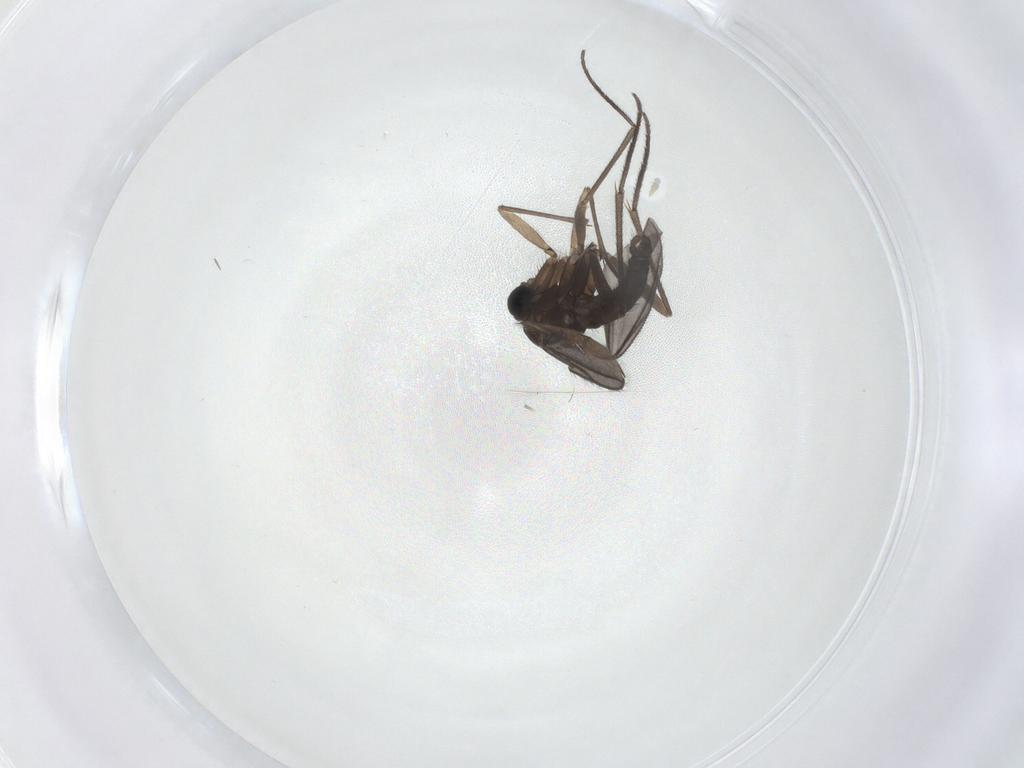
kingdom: Animalia
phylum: Arthropoda
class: Insecta
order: Diptera
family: Sciaridae
